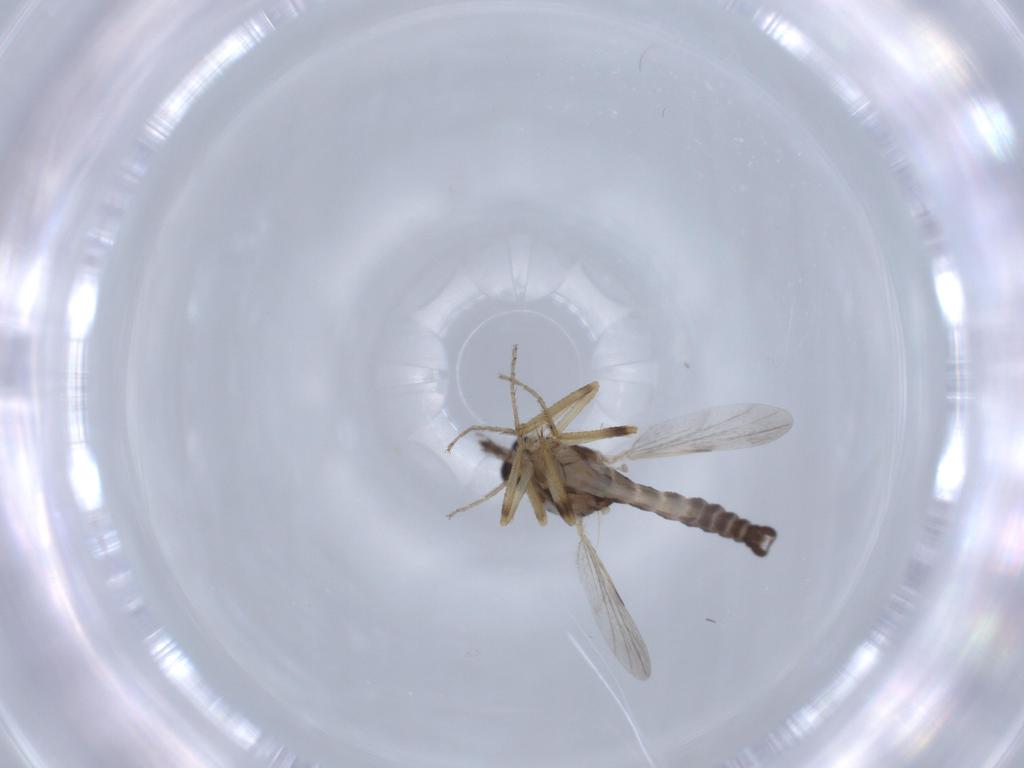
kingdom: Animalia
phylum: Arthropoda
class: Insecta
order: Diptera
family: Ceratopogonidae
